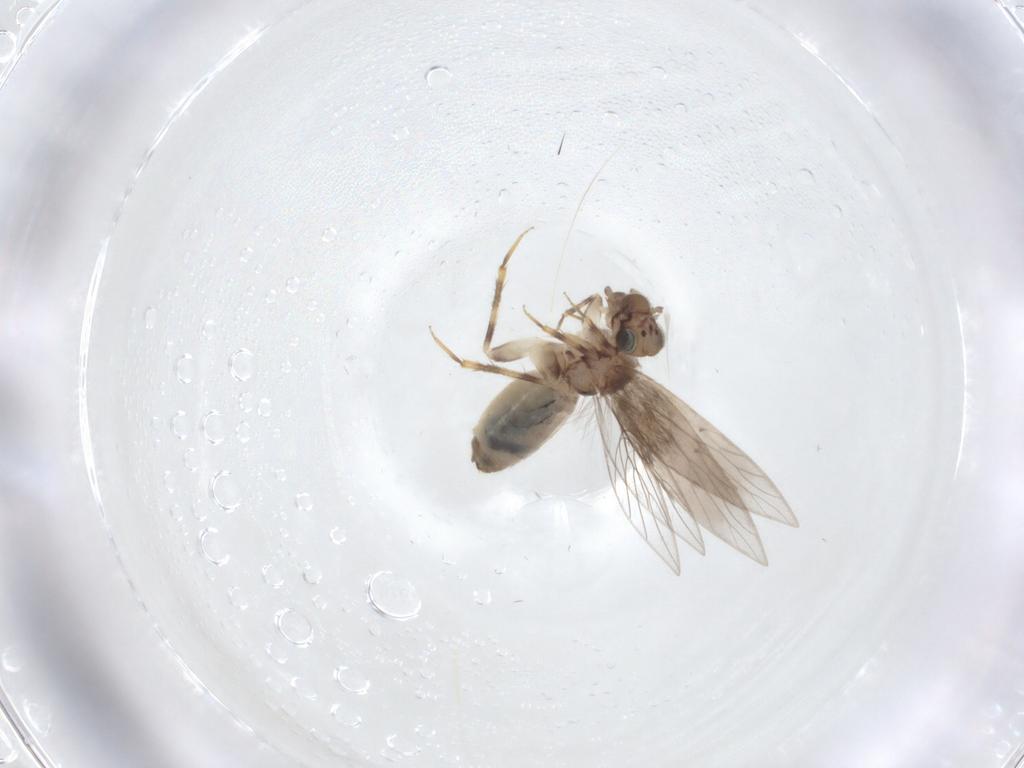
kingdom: Animalia
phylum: Arthropoda
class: Insecta
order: Psocodea
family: Lepidopsocidae
